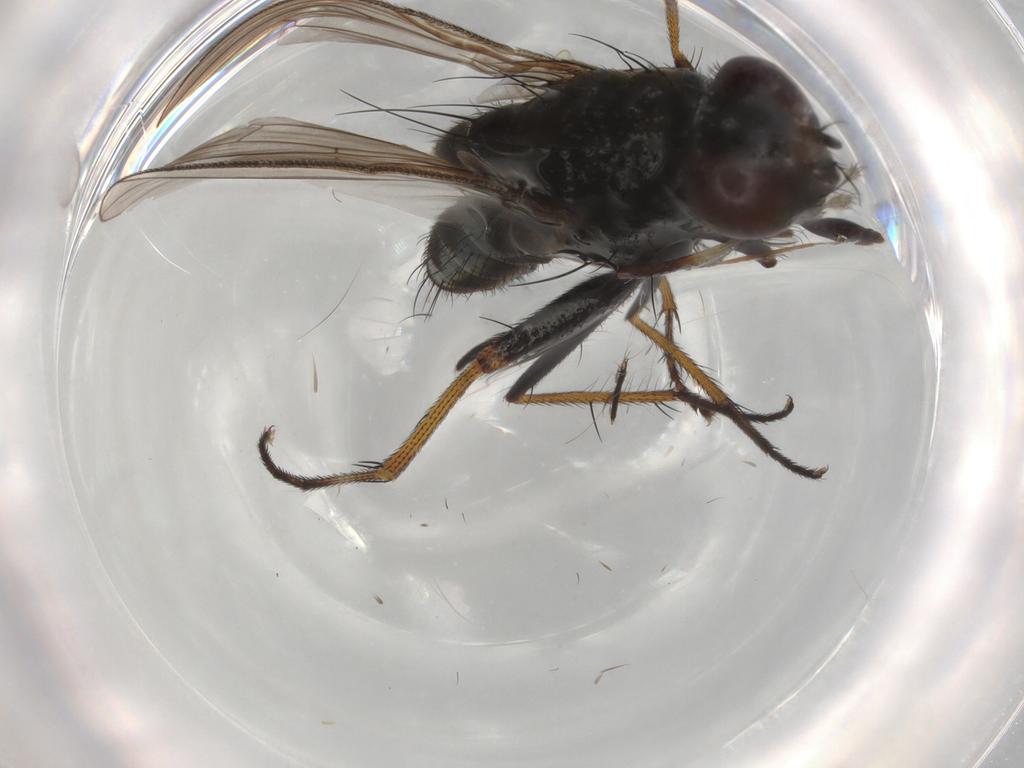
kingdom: Animalia
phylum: Arthropoda
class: Insecta
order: Diptera
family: Muscidae
